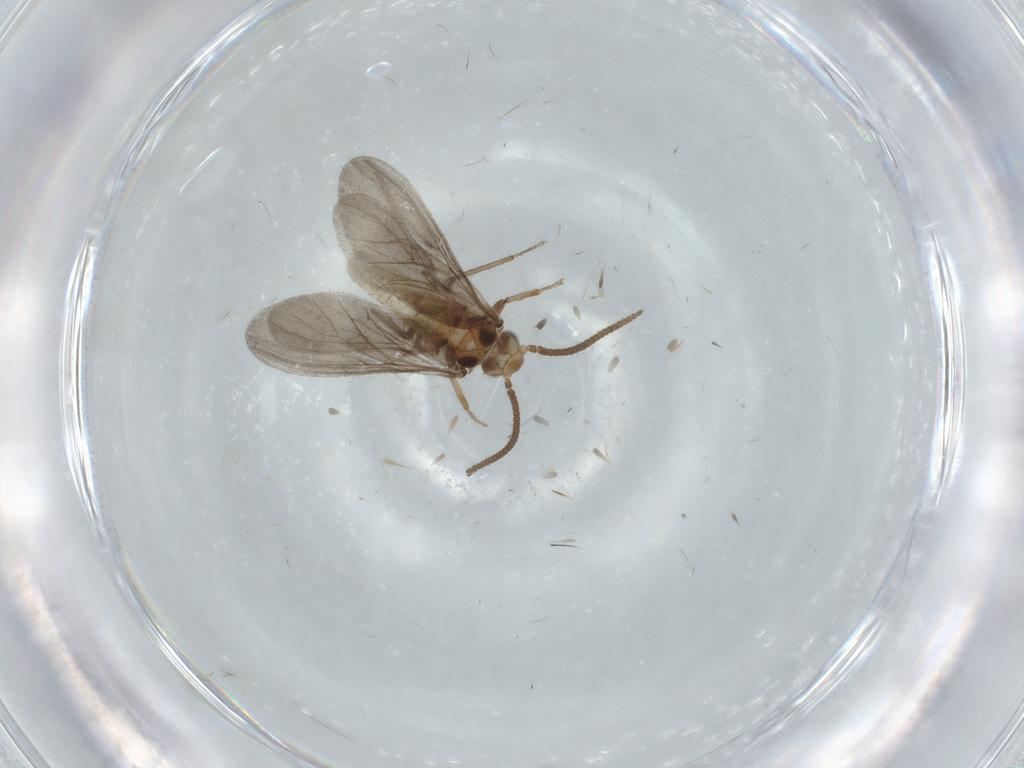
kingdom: Animalia
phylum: Arthropoda
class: Insecta
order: Neuroptera
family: Coniopterygidae
